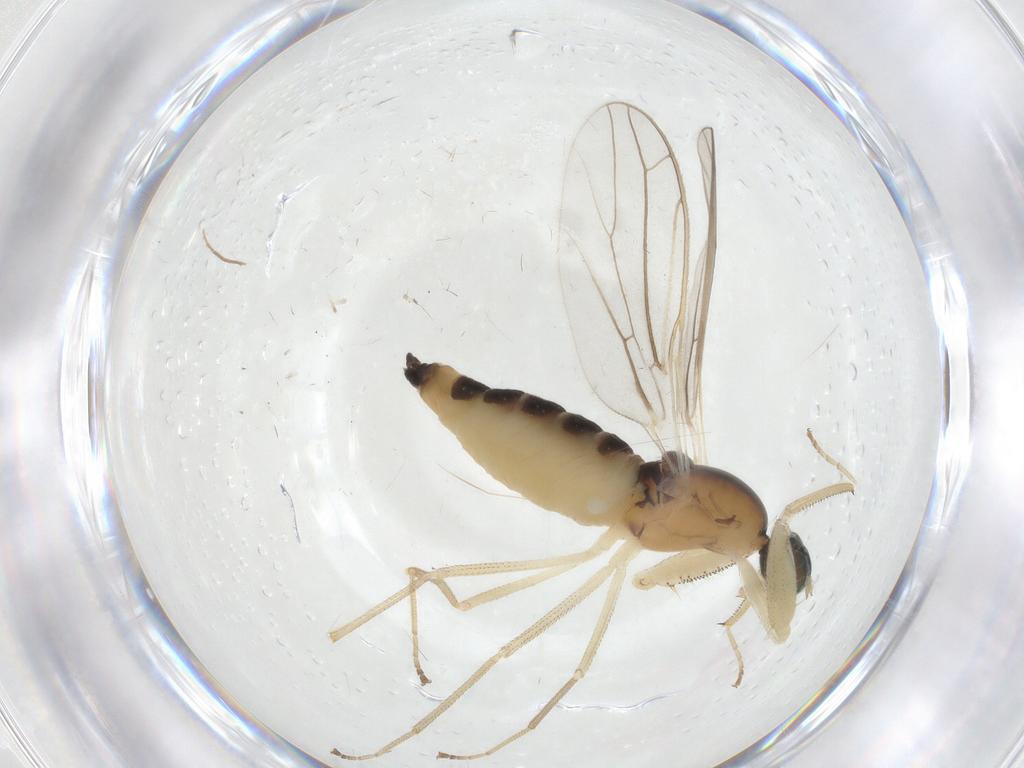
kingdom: Animalia
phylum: Arthropoda
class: Insecta
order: Diptera
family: Empididae
